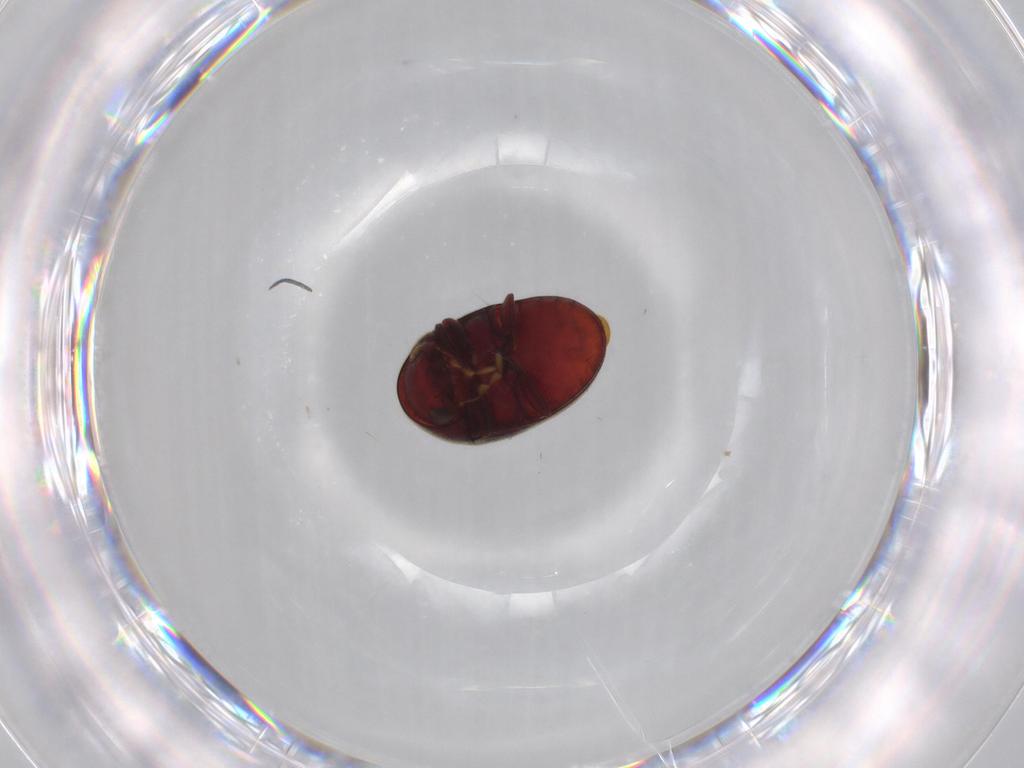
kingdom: Animalia
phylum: Arthropoda
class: Insecta
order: Coleoptera
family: Ptinidae
